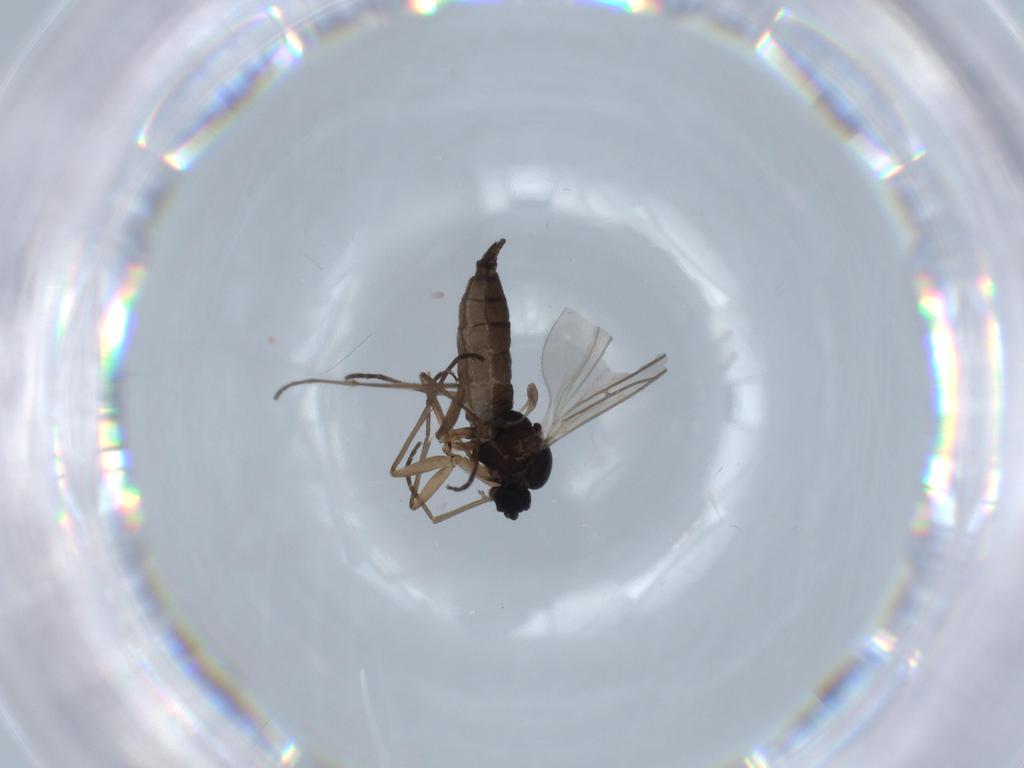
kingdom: Animalia
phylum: Arthropoda
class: Insecta
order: Diptera
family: Sciaridae
